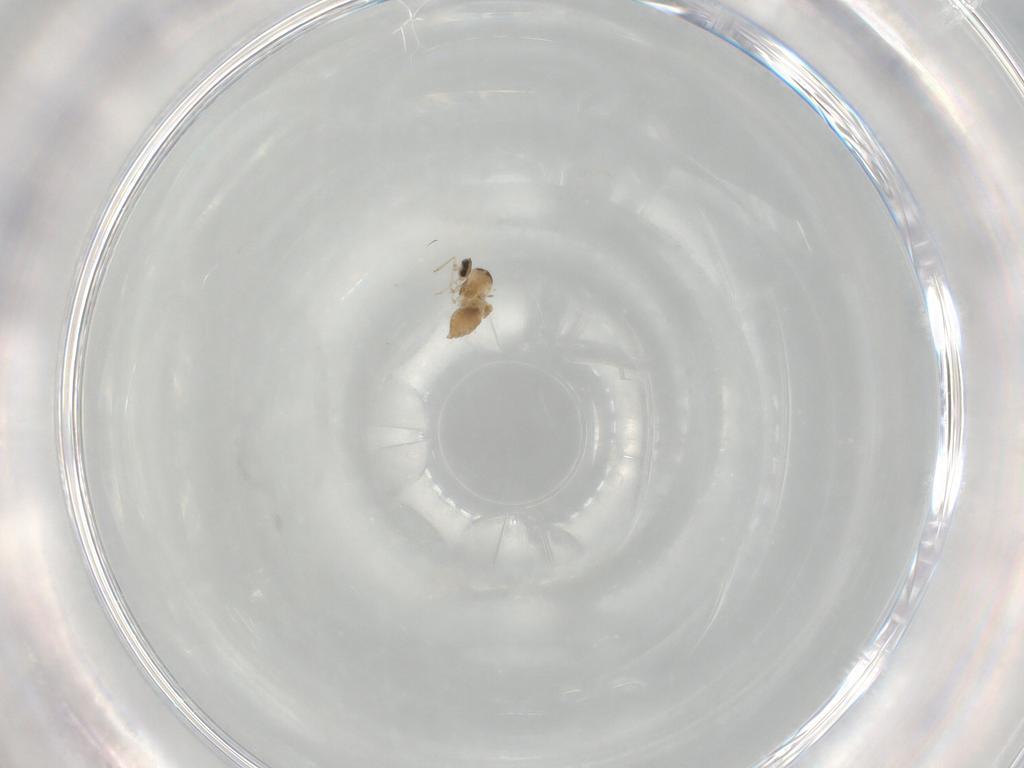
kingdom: Animalia
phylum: Arthropoda
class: Insecta
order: Diptera
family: Cecidomyiidae
